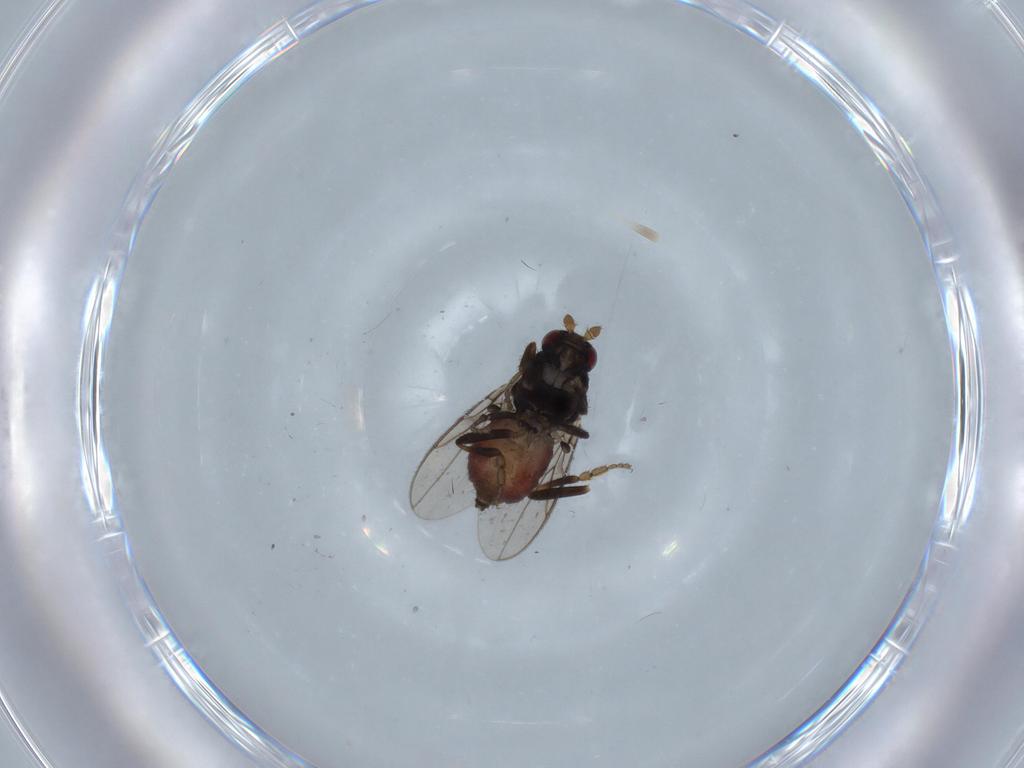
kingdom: Animalia
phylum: Arthropoda
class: Insecta
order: Diptera
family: Sphaeroceridae
